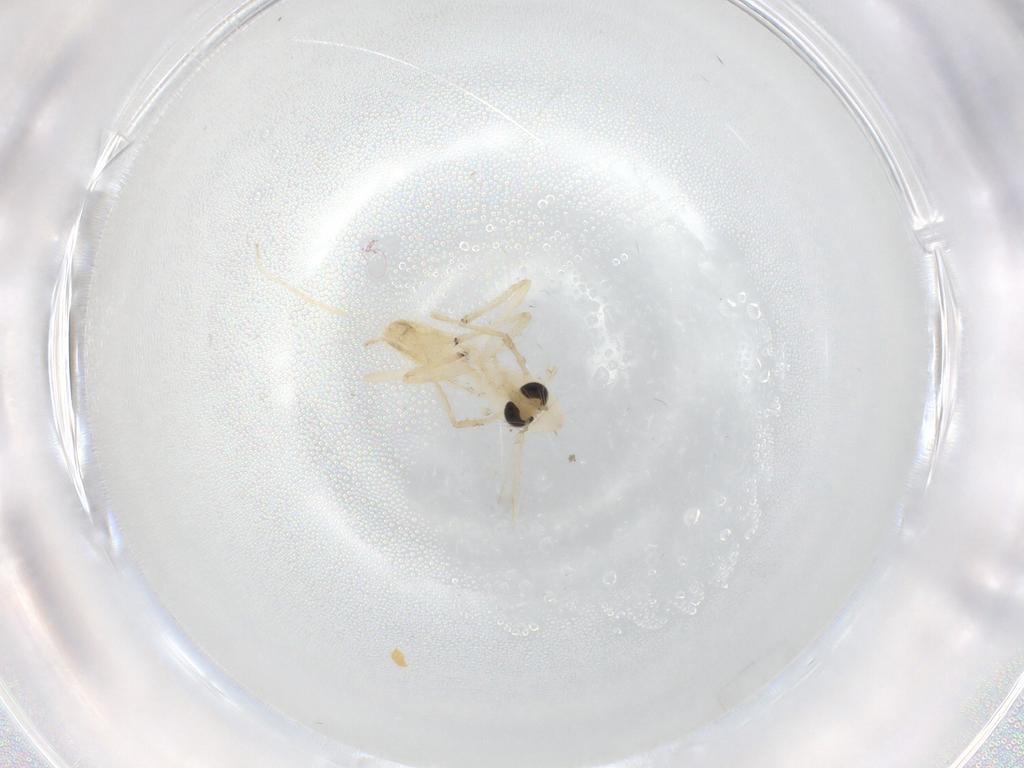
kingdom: Animalia
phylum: Arthropoda
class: Insecta
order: Diptera
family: Chironomidae
